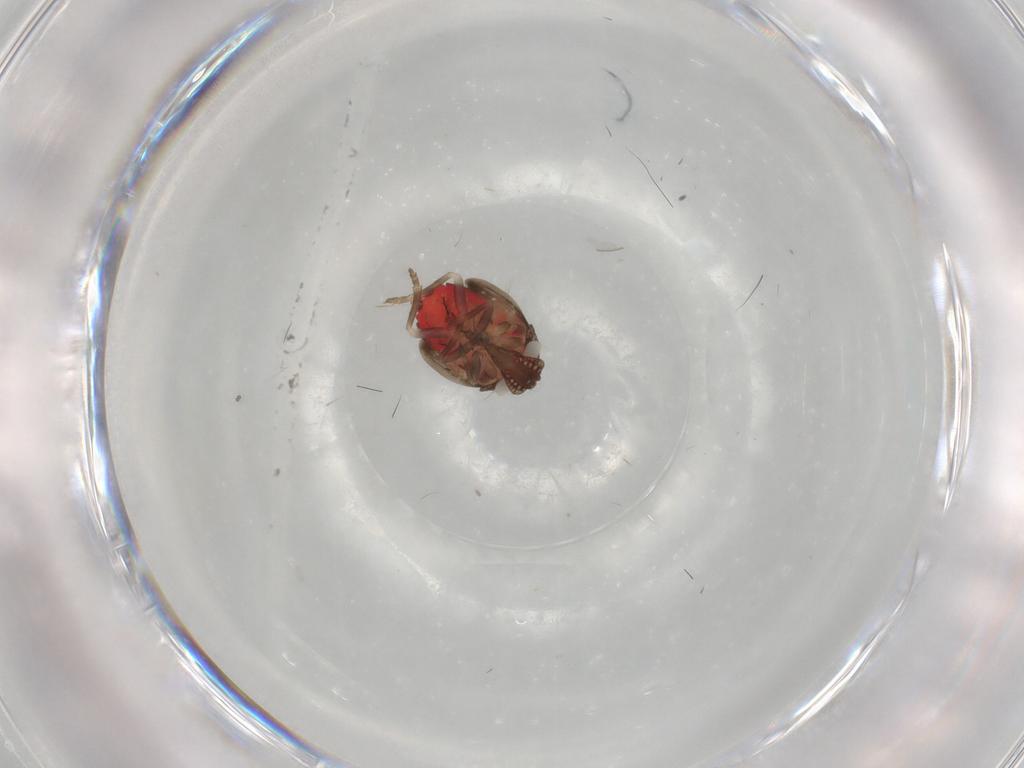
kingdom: Animalia
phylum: Arthropoda
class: Insecta
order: Hemiptera
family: Fulgoroidea_incertae_sedis
